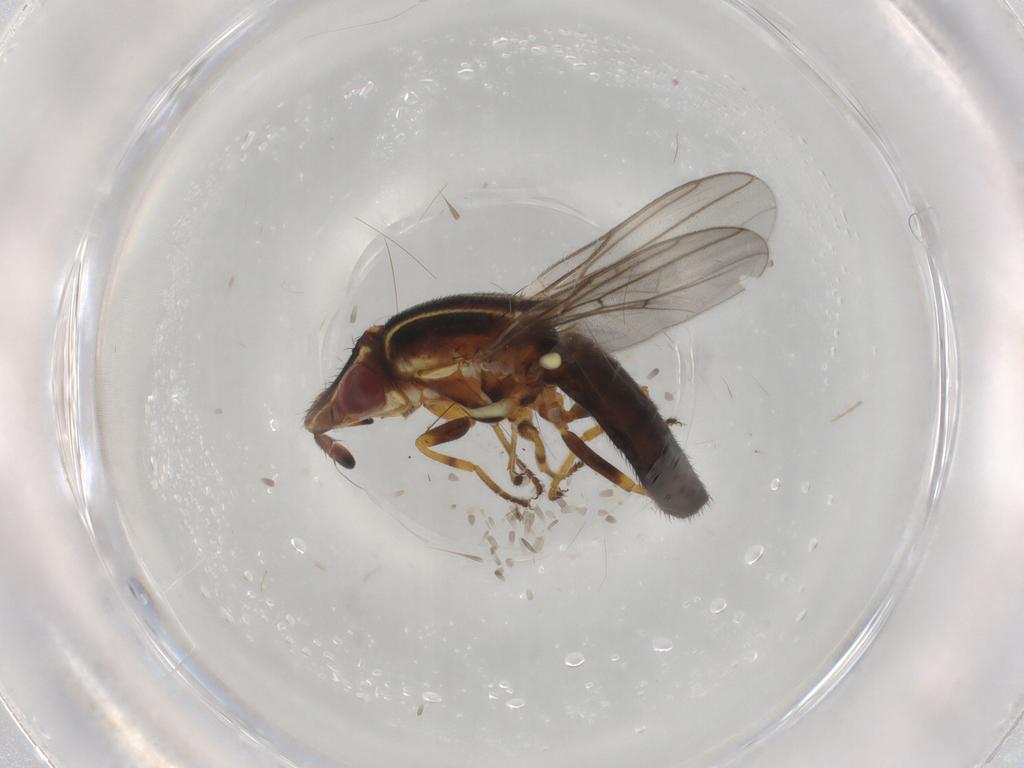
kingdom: Animalia
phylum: Arthropoda
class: Insecta
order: Diptera
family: Chloropidae
